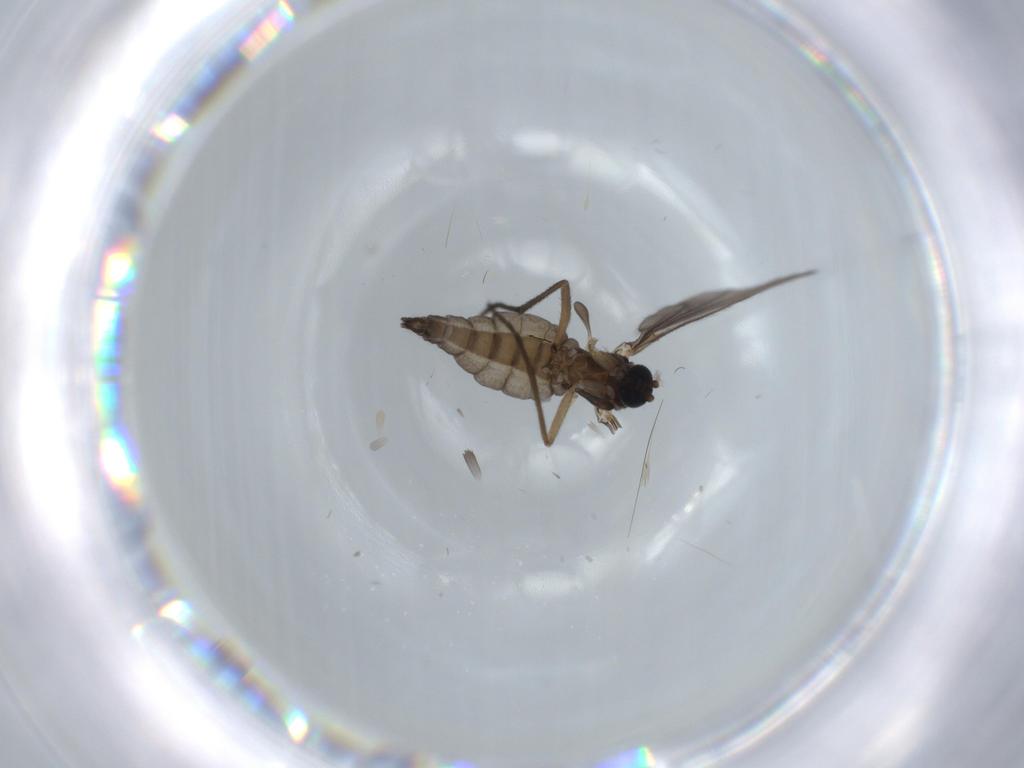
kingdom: Animalia
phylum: Arthropoda
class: Insecta
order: Diptera
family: Sciaridae
